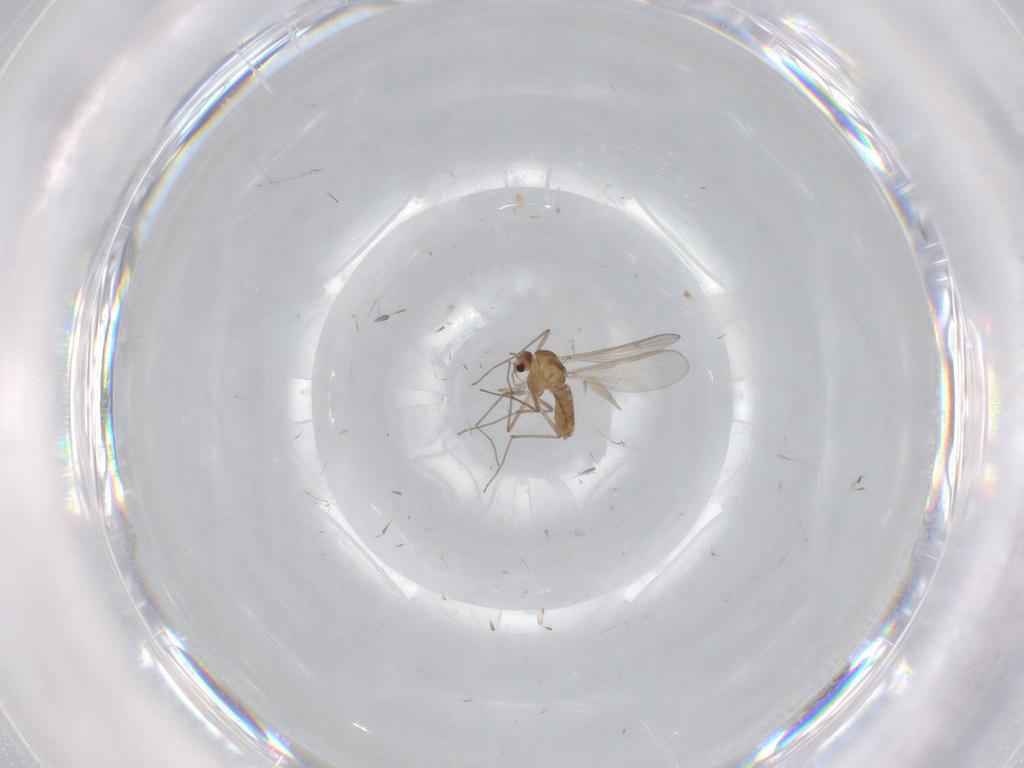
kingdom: Animalia
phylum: Arthropoda
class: Insecta
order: Diptera
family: Chironomidae
